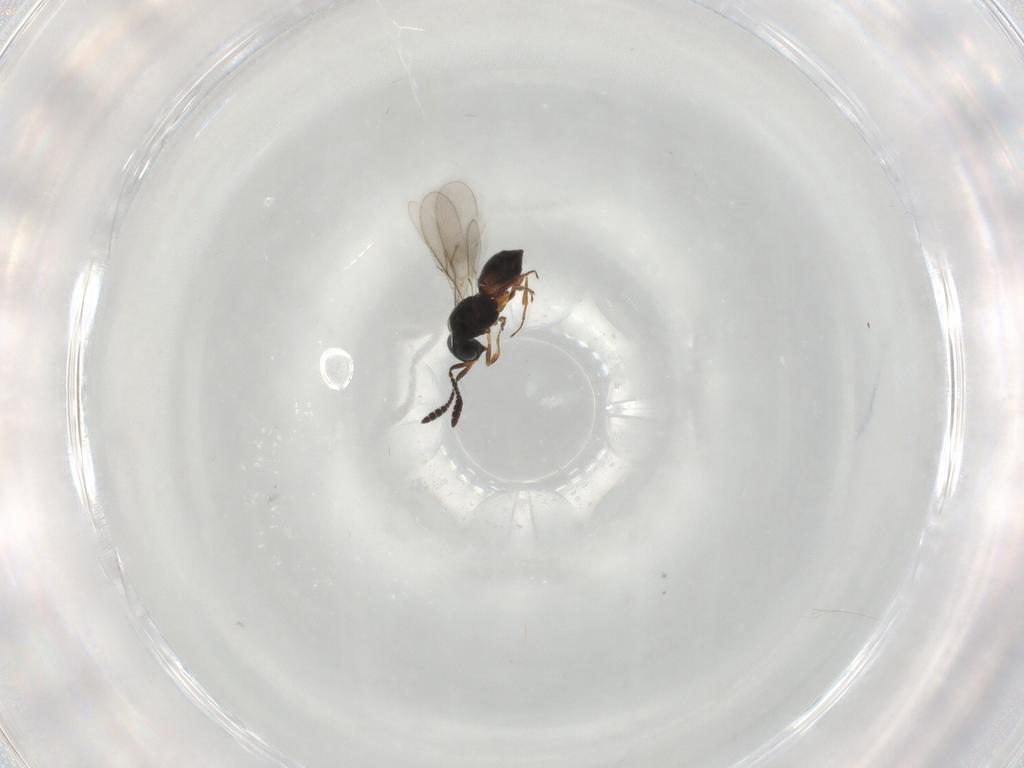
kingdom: Animalia
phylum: Arthropoda
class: Insecta
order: Hymenoptera
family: Scelionidae
